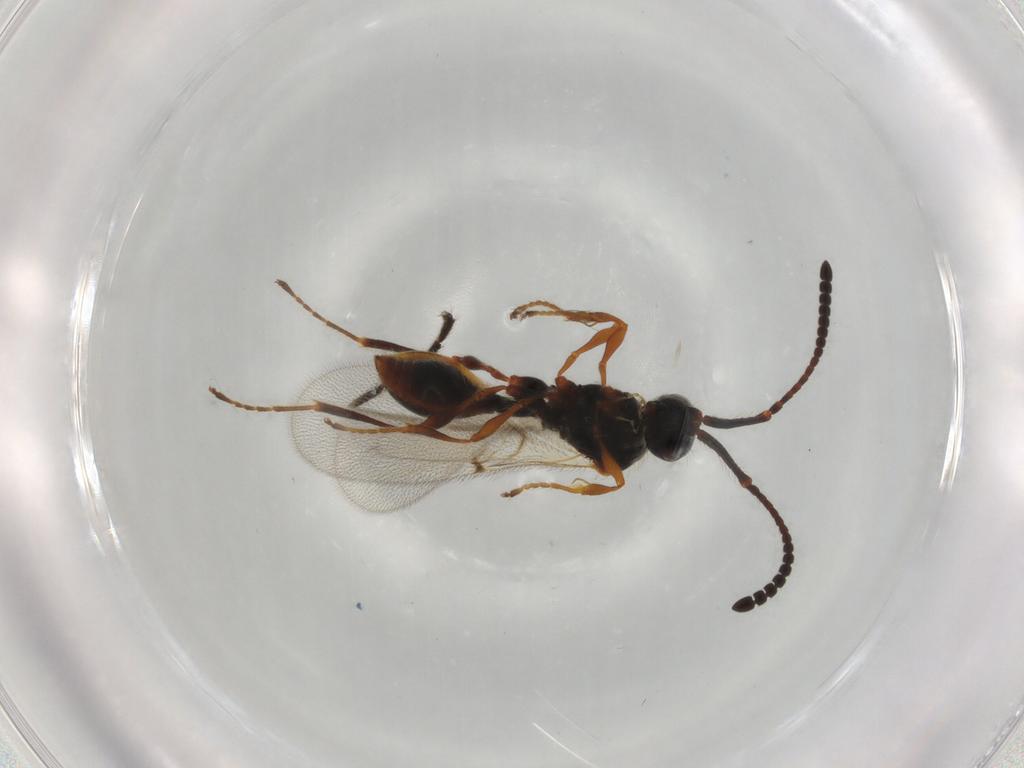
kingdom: Animalia
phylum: Arthropoda
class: Insecta
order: Hymenoptera
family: Diapriidae
